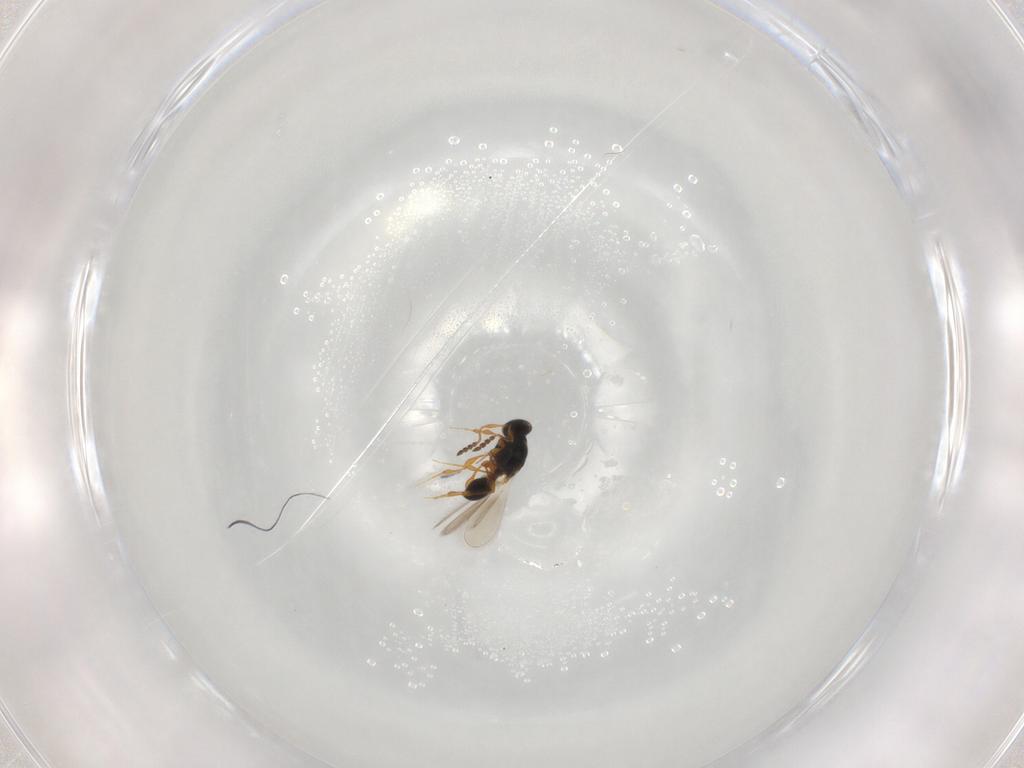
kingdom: Animalia
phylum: Arthropoda
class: Insecta
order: Hymenoptera
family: Platygastridae
